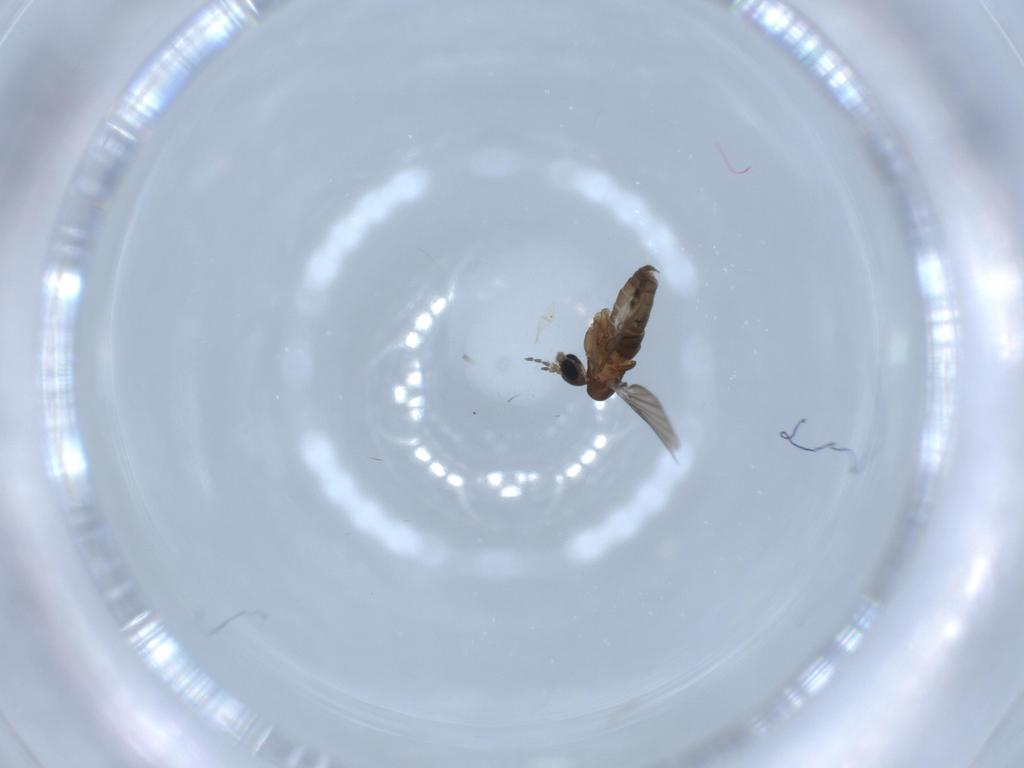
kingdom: Animalia
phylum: Arthropoda
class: Insecta
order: Diptera
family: Psychodidae
